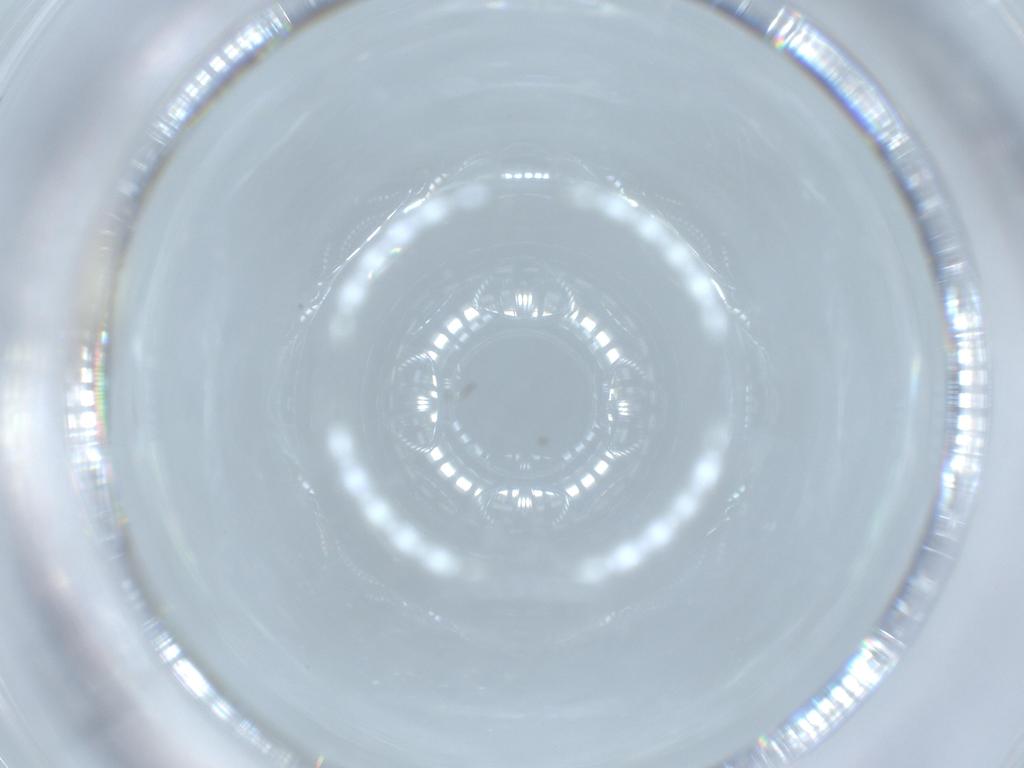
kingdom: Animalia
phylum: Arthropoda
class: Insecta
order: Diptera
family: Cecidomyiidae
